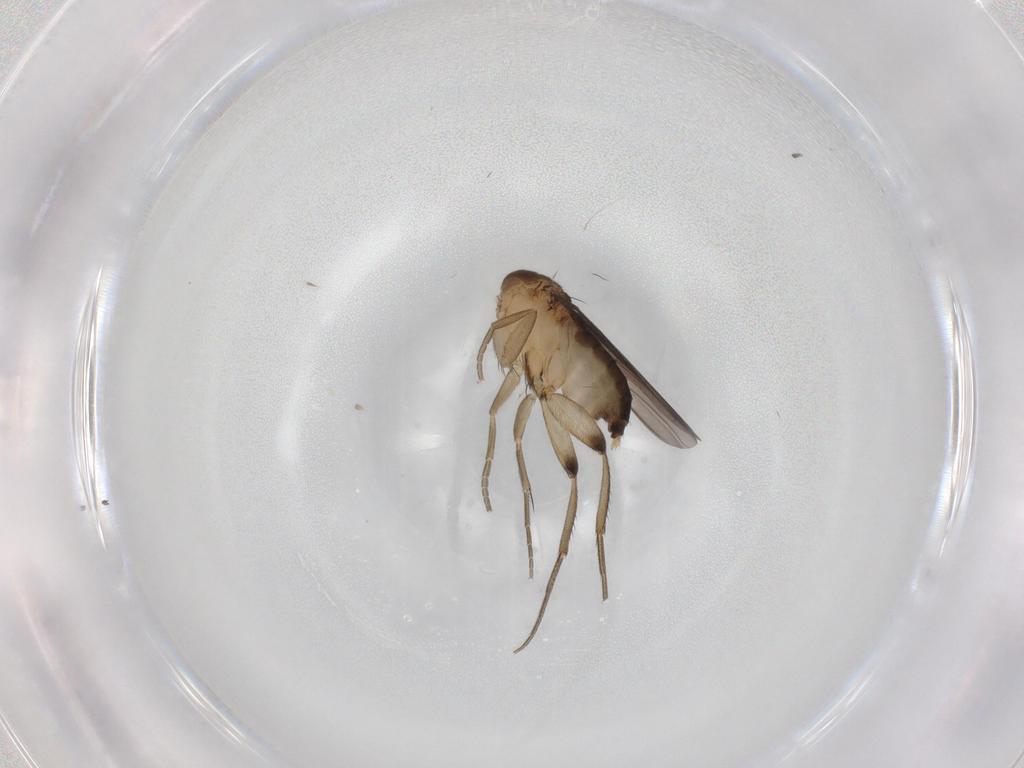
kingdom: Animalia
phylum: Arthropoda
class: Insecta
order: Diptera
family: Phoridae
